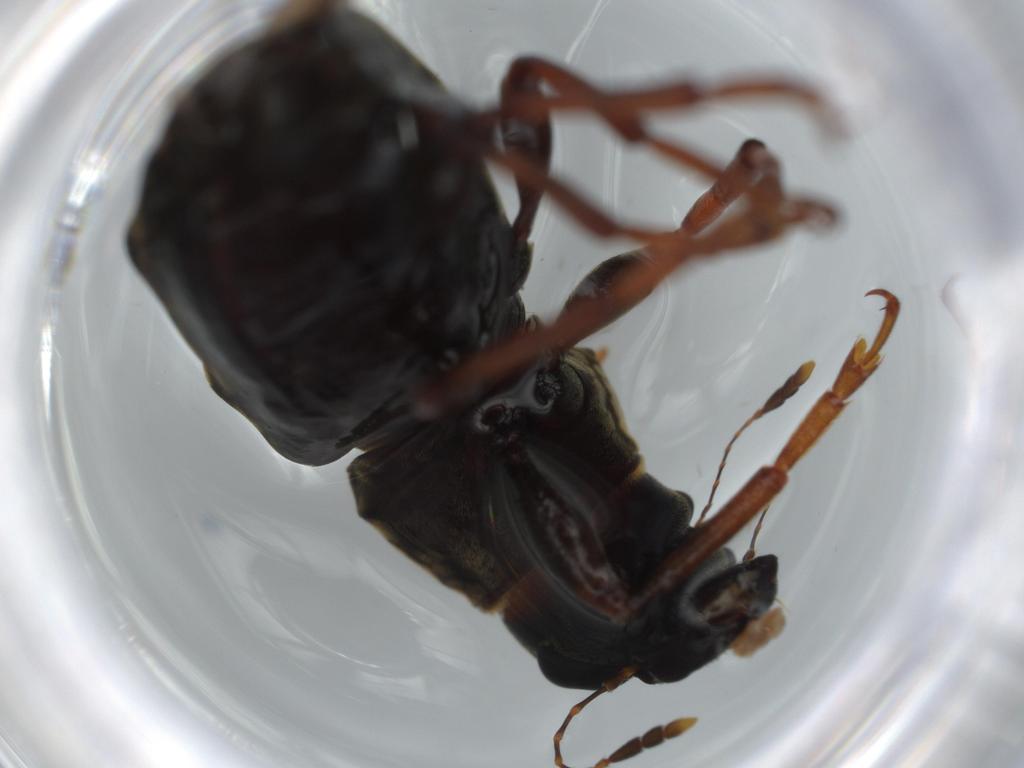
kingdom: Animalia
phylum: Arthropoda
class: Insecta
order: Coleoptera
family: Anthribidae
